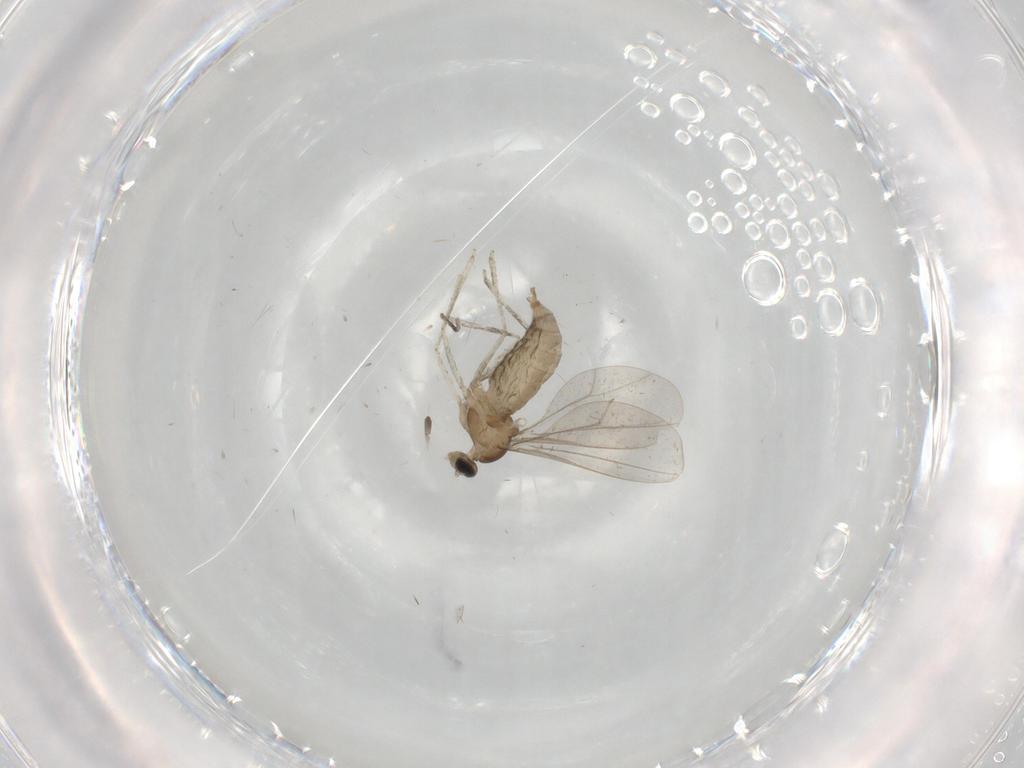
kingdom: Animalia
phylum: Arthropoda
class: Insecta
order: Diptera
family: Cecidomyiidae
